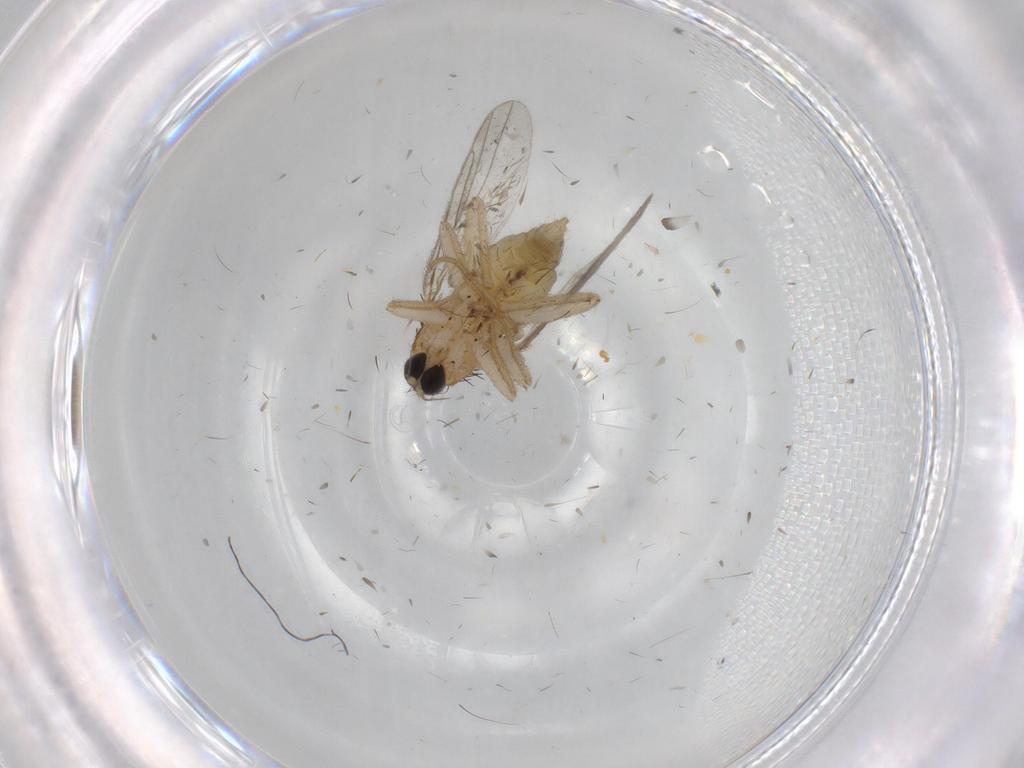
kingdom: Animalia
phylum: Arthropoda
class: Insecta
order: Diptera
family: Hybotidae
